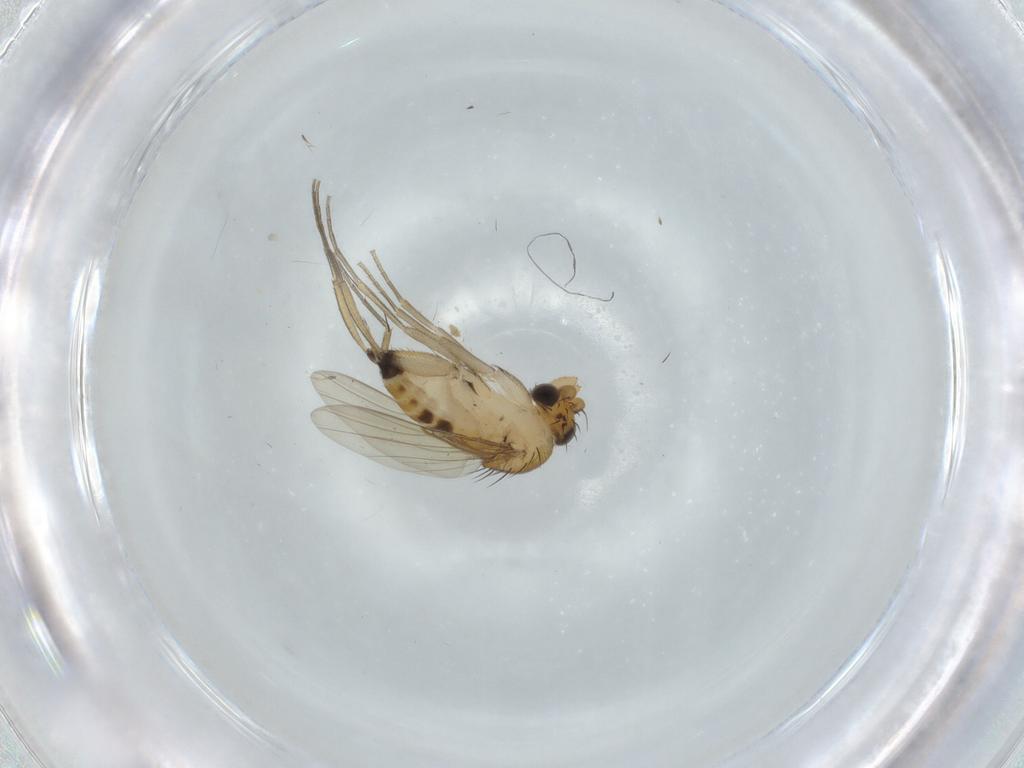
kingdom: Animalia
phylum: Arthropoda
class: Insecta
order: Diptera
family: Phoridae
